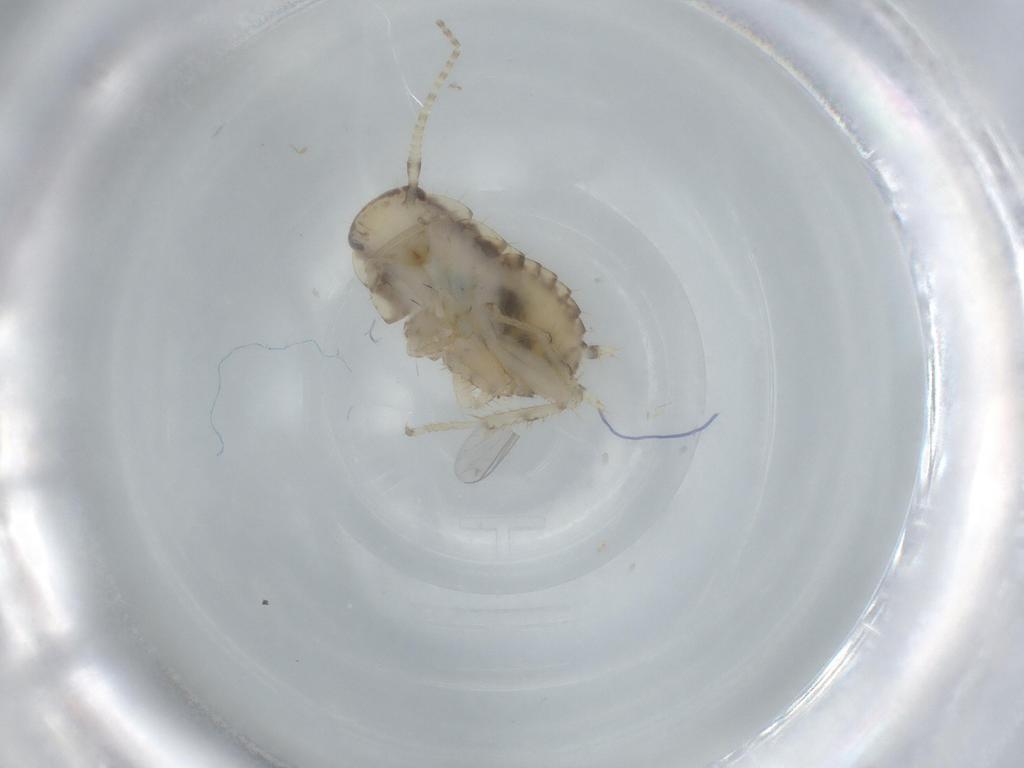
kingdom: Animalia
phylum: Arthropoda
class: Insecta
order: Blattodea
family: Ectobiidae
